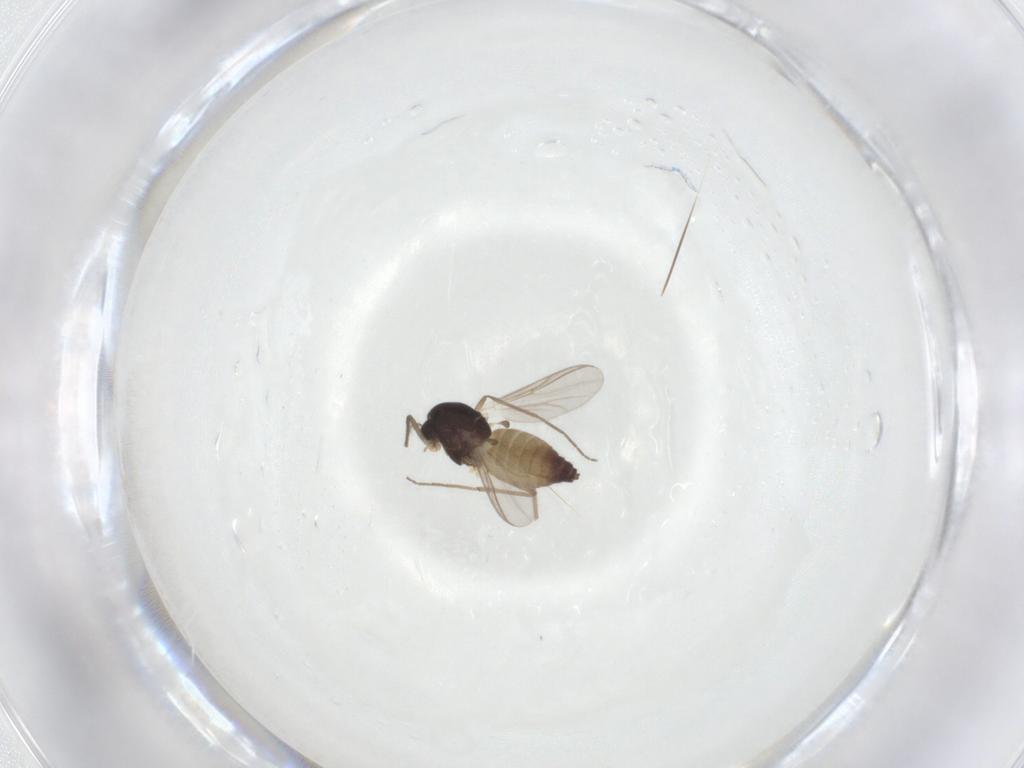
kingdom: Animalia
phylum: Arthropoda
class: Insecta
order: Diptera
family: Chironomidae
